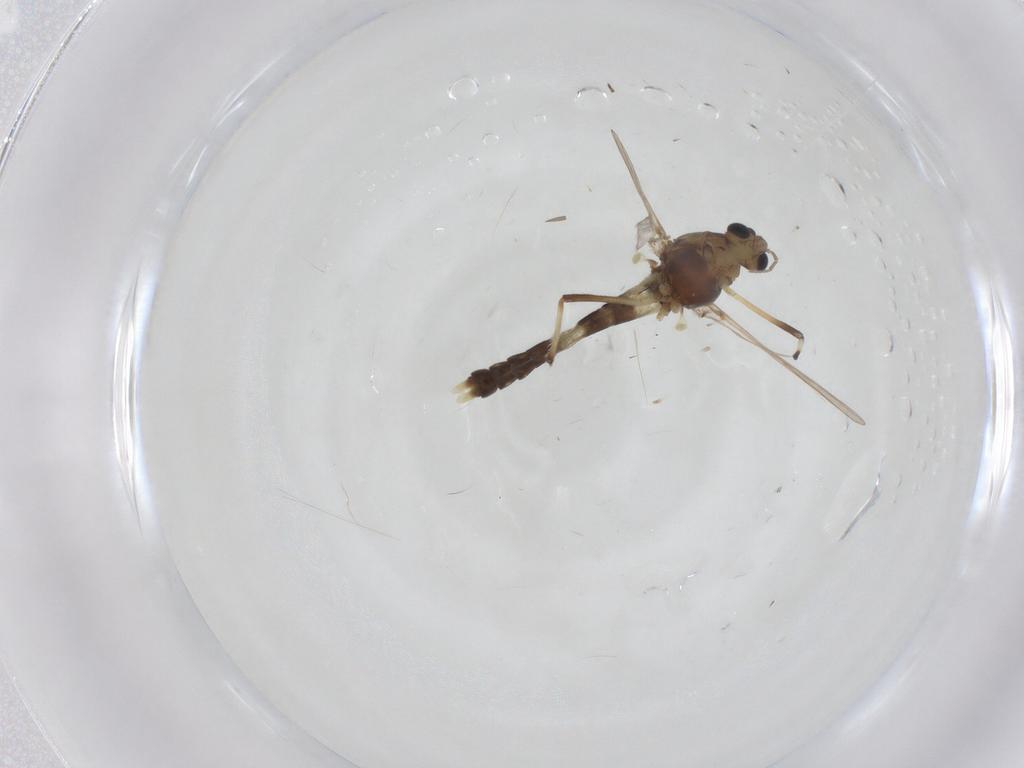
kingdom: Animalia
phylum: Arthropoda
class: Insecta
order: Diptera
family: Chironomidae
